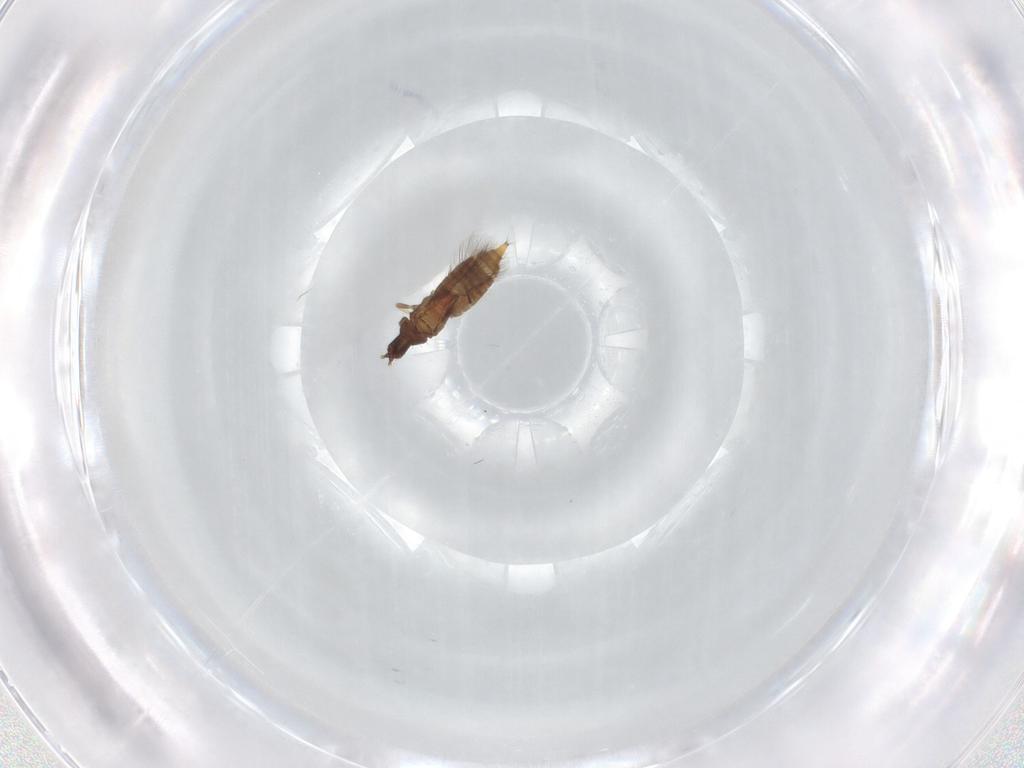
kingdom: Animalia
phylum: Arthropoda
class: Insecta
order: Thysanoptera
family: Phlaeothripidae
